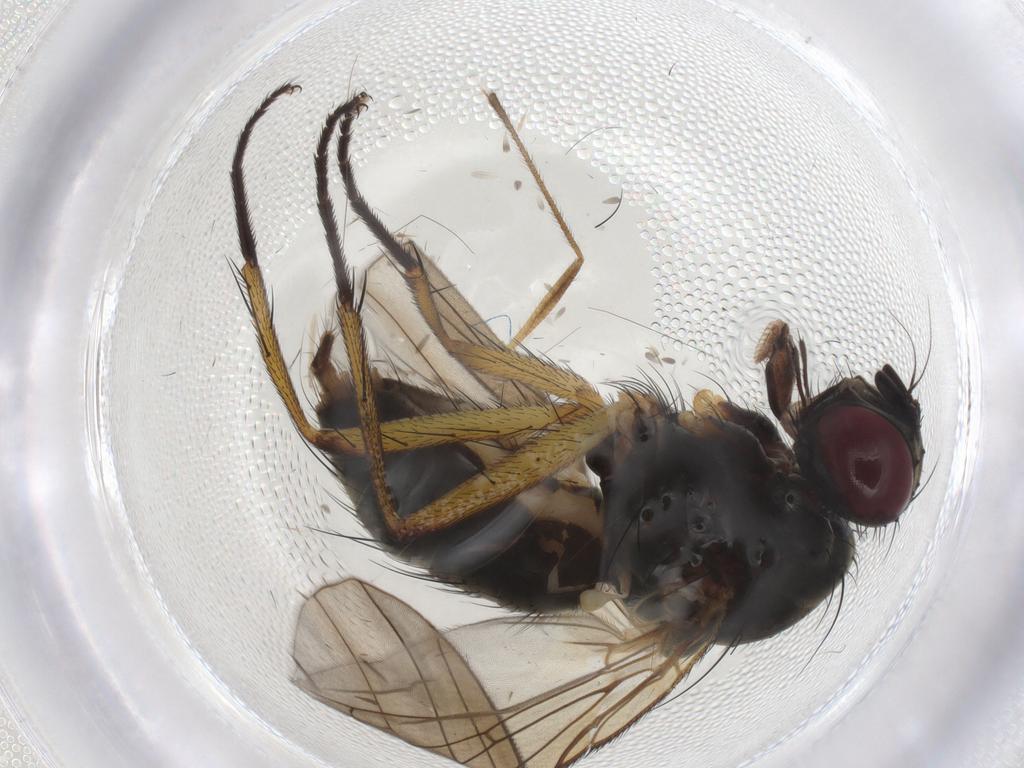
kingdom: Animalia
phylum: Arthropoda
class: Insecta
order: Diptera
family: Muscidae
